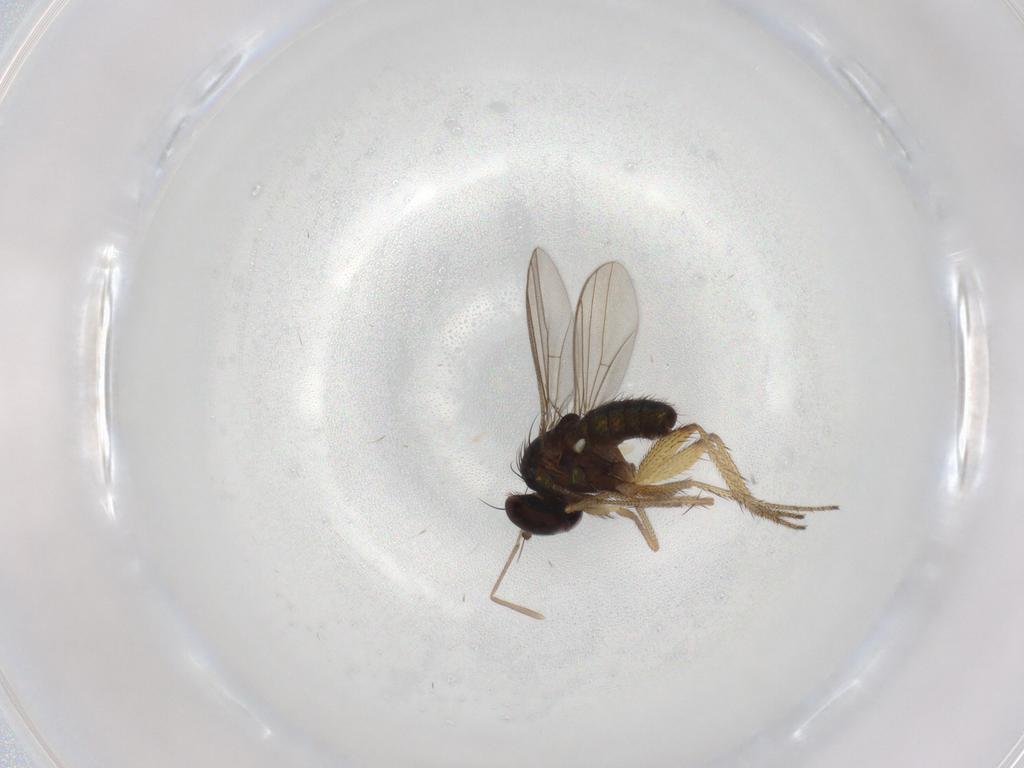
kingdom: Animalia
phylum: Arthropoda
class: Insecta
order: Diptera
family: Chironomidae
